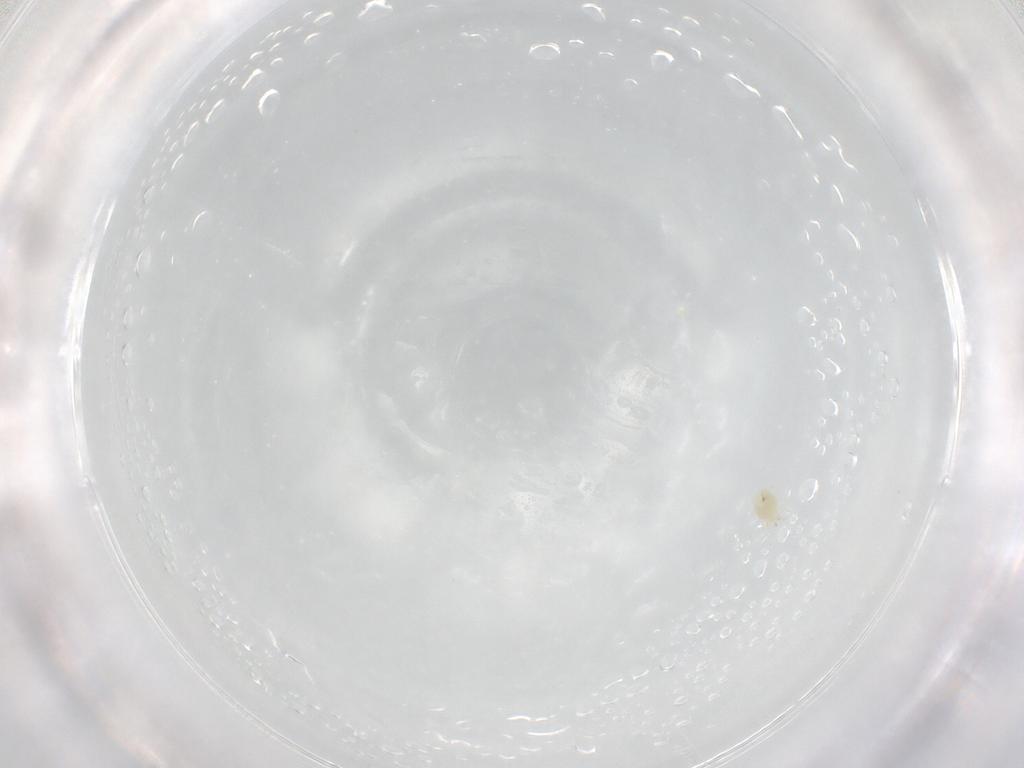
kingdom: Animalia
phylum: Arthropoda
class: Arachnida
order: Trombidiformes
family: Tetranychidae
